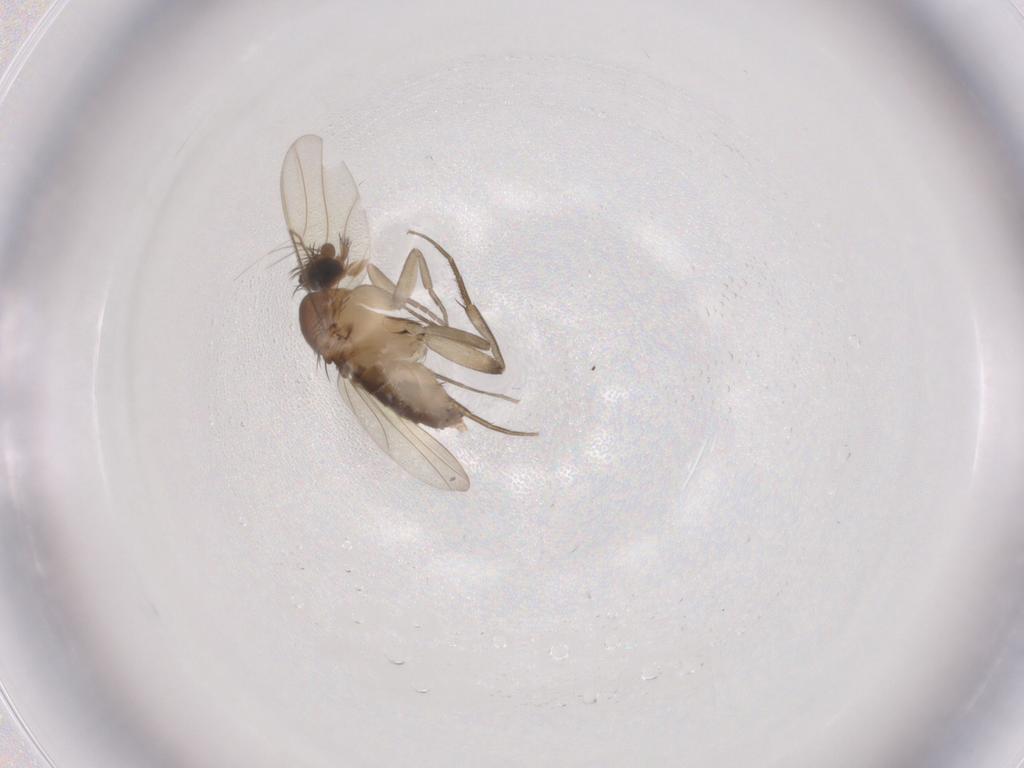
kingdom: Animalia
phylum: Arthropoda
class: Insecta
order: Diptera
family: Phoridae
